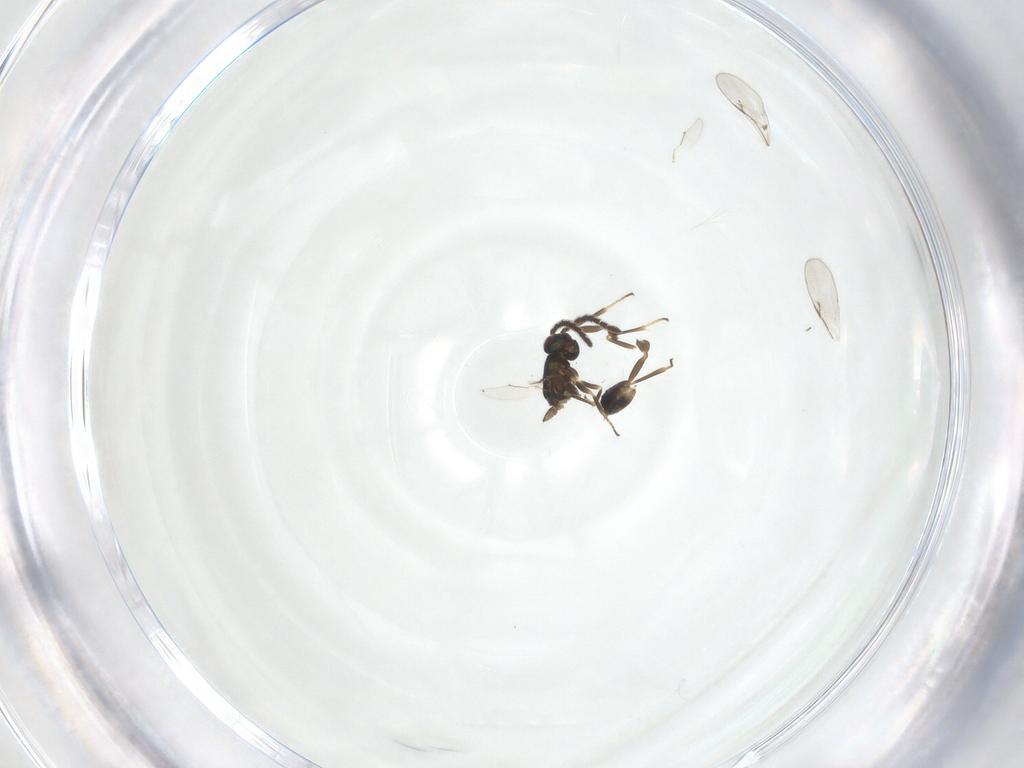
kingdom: Animalia
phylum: Arthropoda
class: Insecta
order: Hymenoptera
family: Encyrtidae
